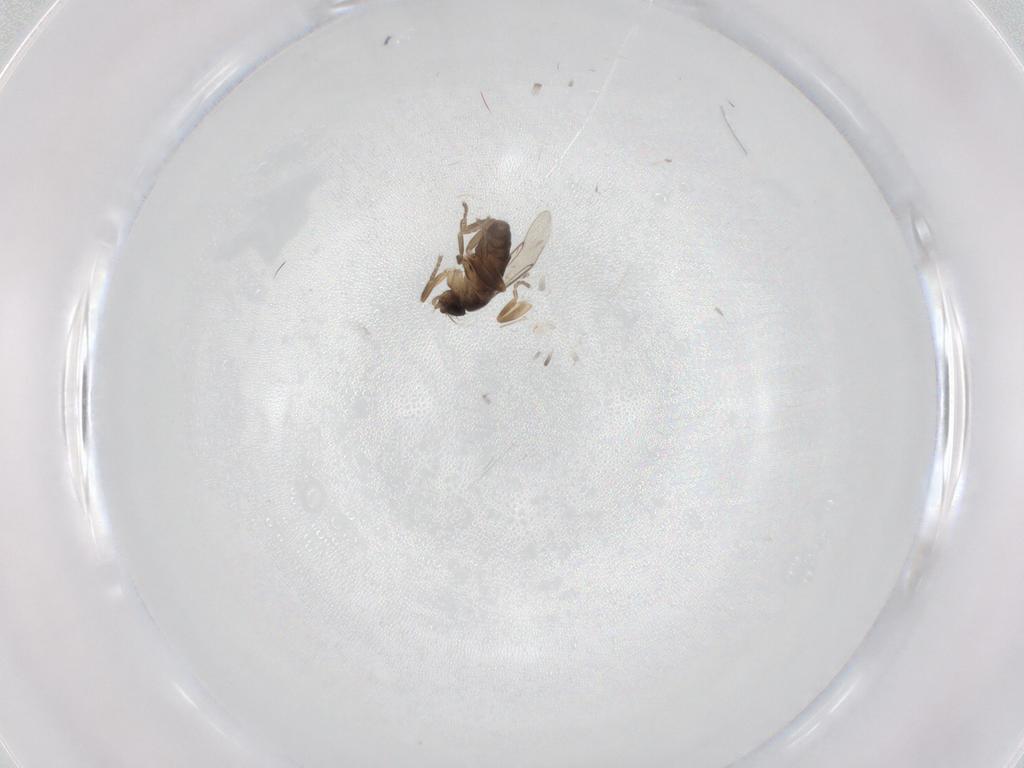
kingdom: Animalia
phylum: Arthropoda
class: Insecta
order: Diptera
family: Phoridae
